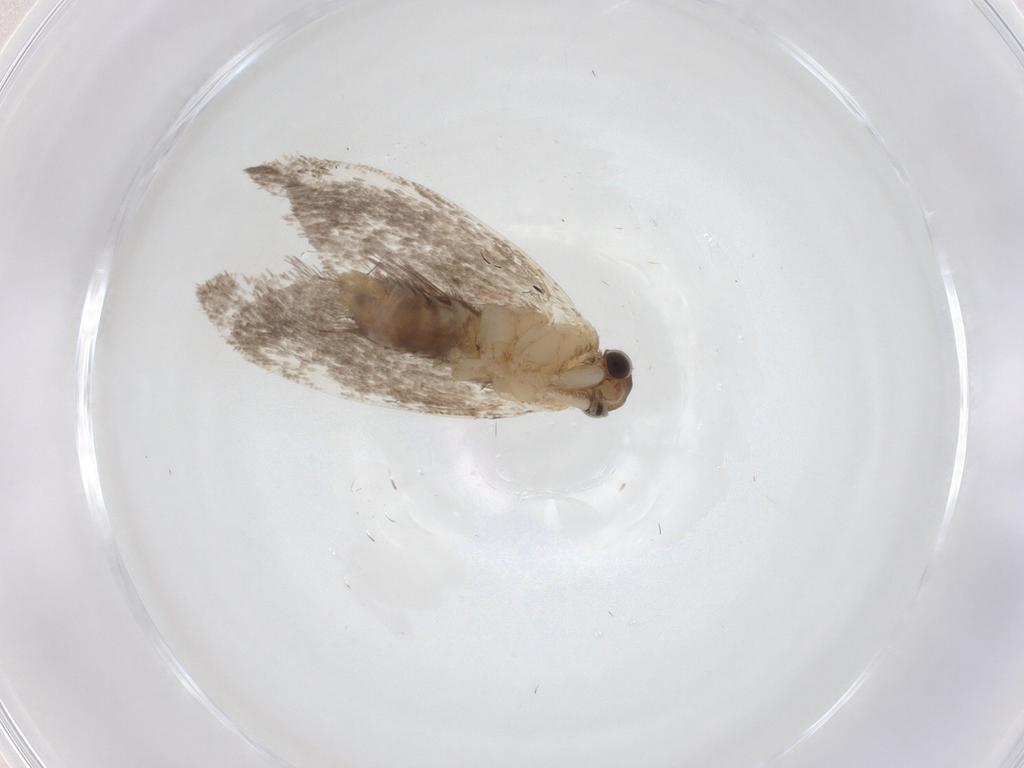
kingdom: Animalia
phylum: Arthropoda
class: Insecta
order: Lepidoptera
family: Dryadaulidae
